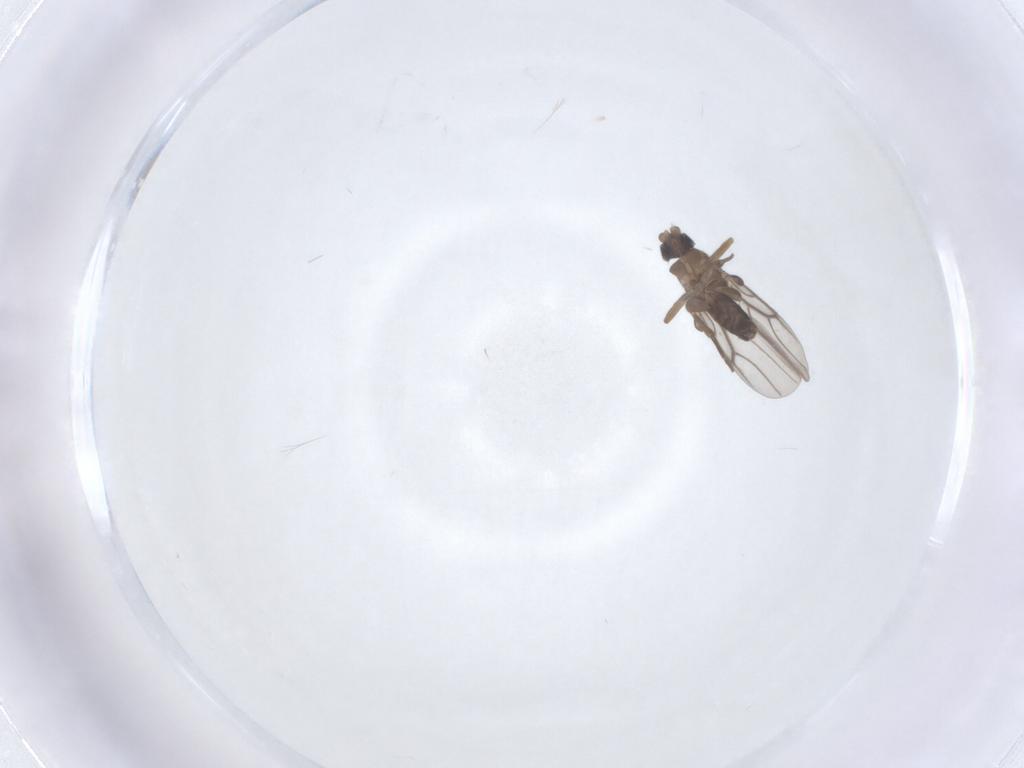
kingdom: Animalia
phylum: Arthropoda
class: Insecta
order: Diptera
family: Phoridae
